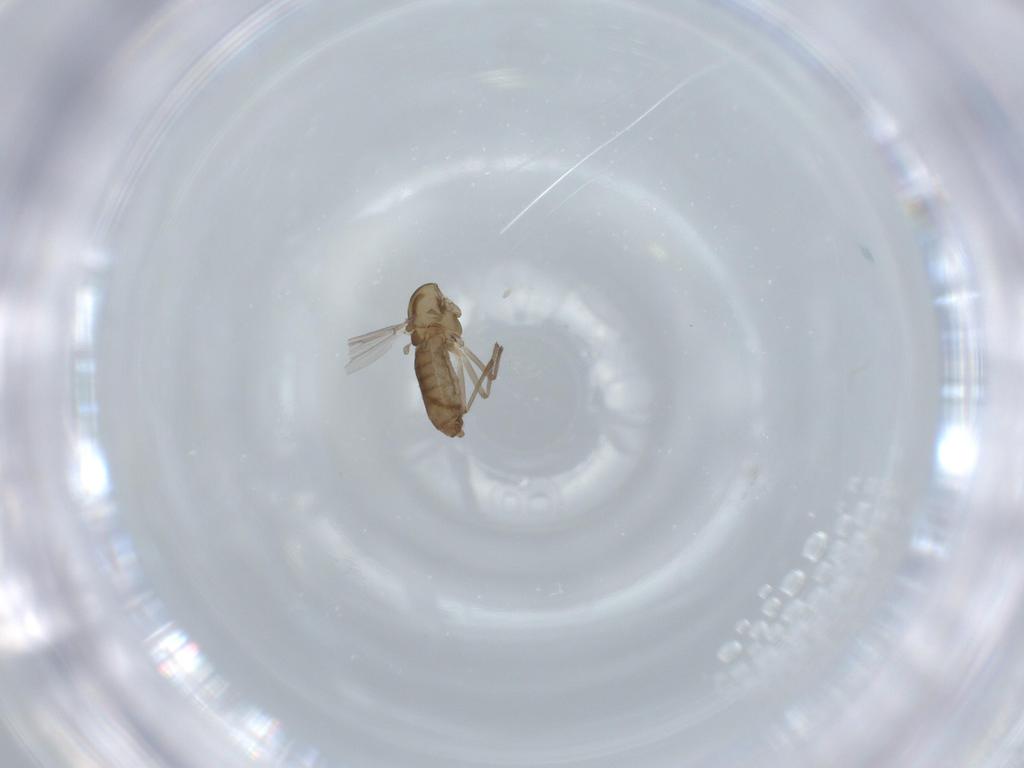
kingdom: Animalia
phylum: Arthropoda
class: Insecta
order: Diptera
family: Chironomidae
